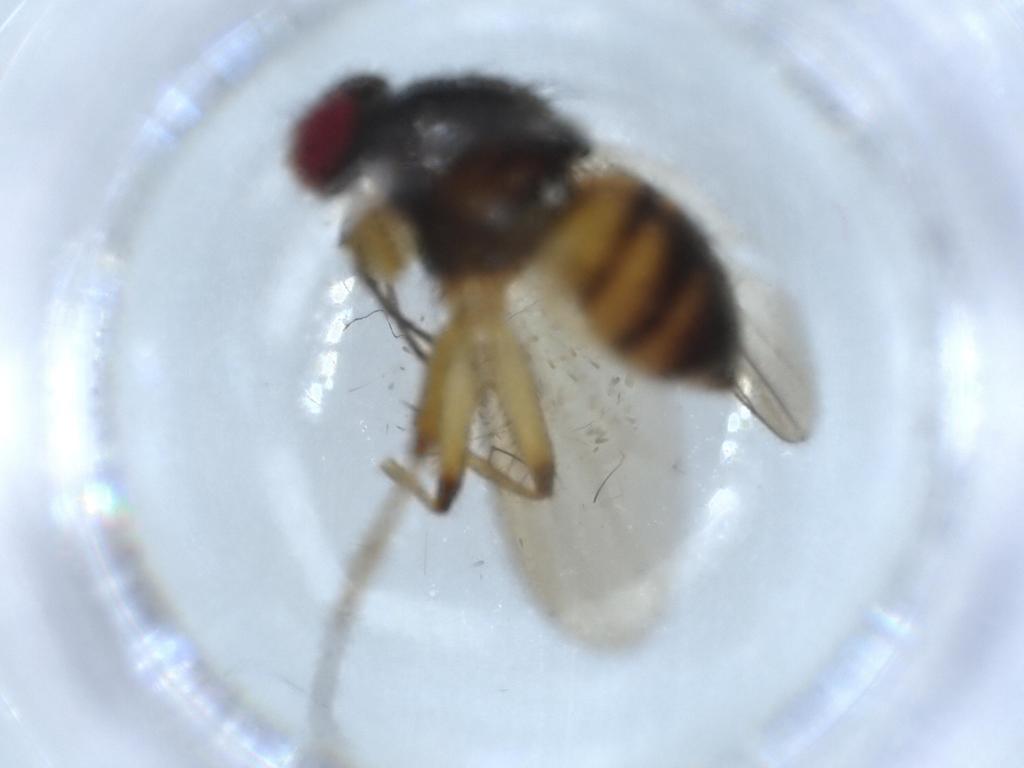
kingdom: Animalia
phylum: Arthropoda
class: Insecta
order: Diptera
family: Muscidae
